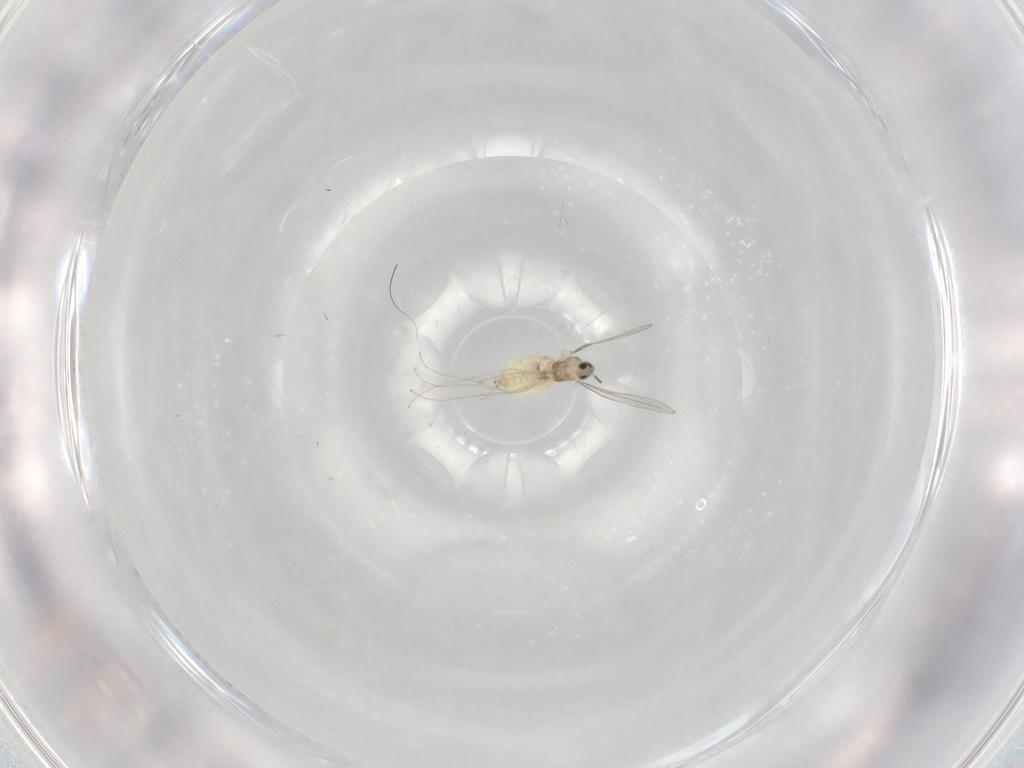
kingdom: Animalia
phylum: Arthropoda
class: Insecta
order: Diptera
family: Cecidomyiidae
